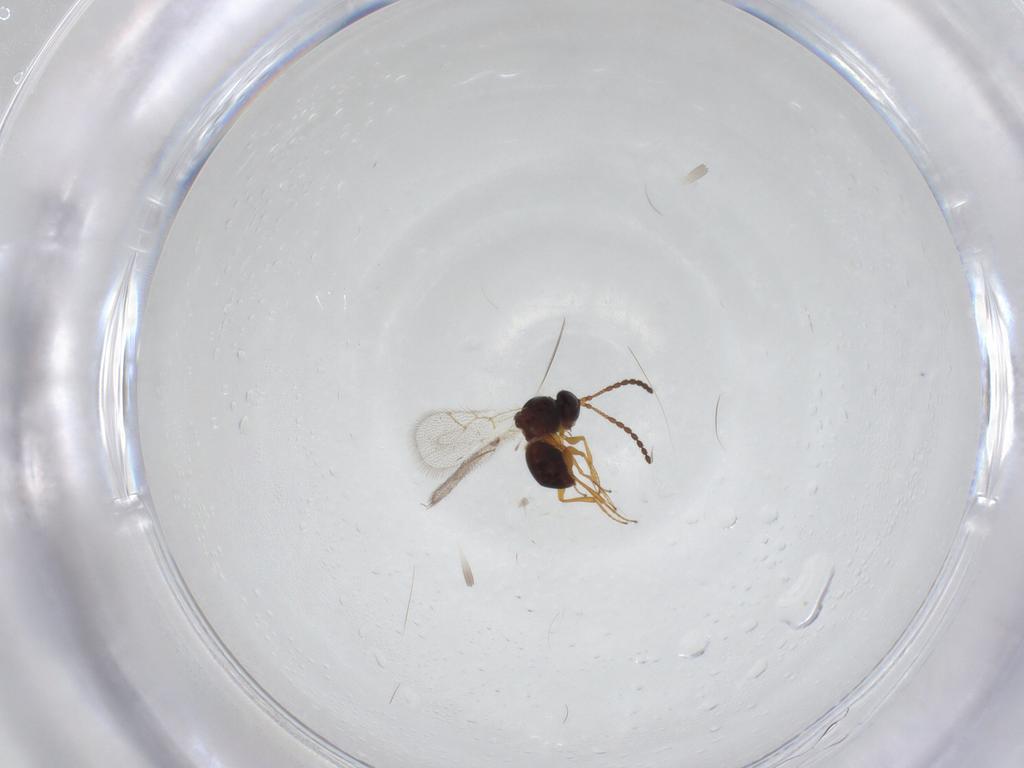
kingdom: Animalia
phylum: Arthropoda
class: Insecta
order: Hymenoptera
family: Figitidae
